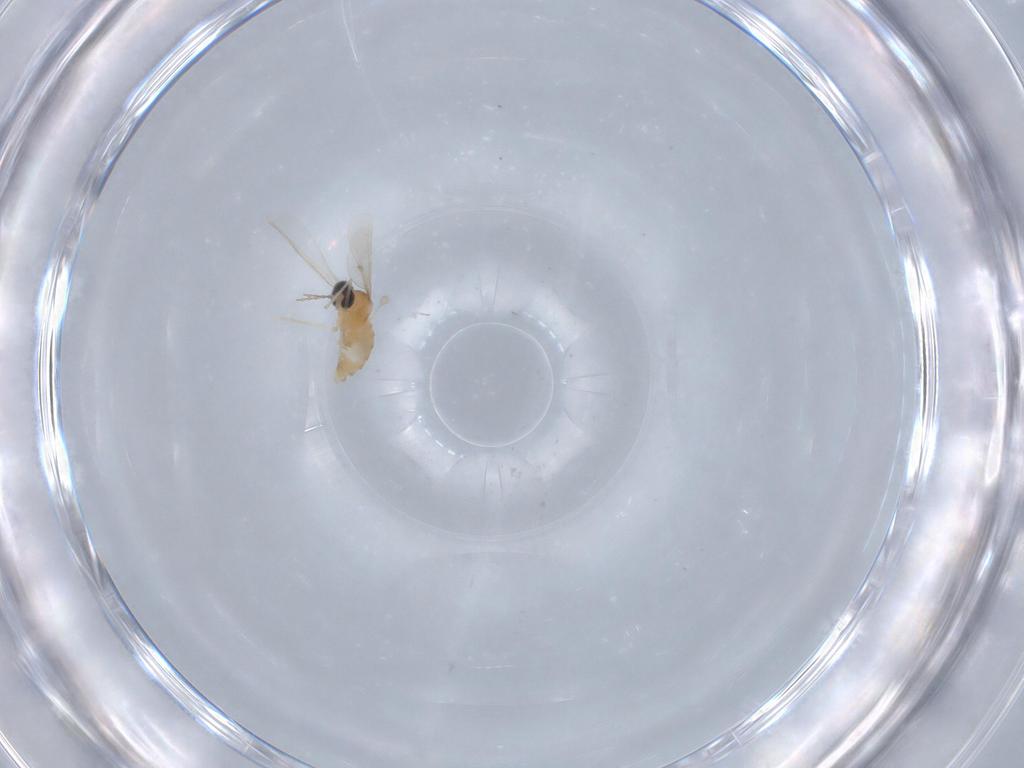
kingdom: Animalia
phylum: Arthropoda
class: Insecta
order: Diptera
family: Cecidomyiidae
